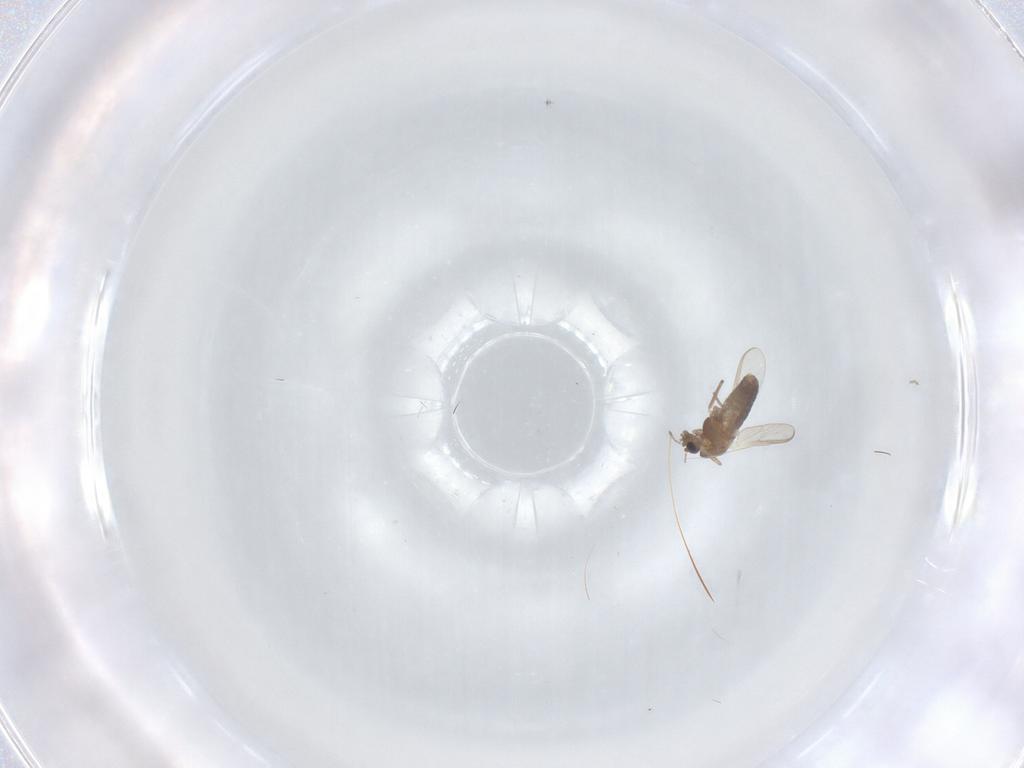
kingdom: Animalia
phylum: Arthropoda
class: Insecta
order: Diptera
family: Chironomidae
